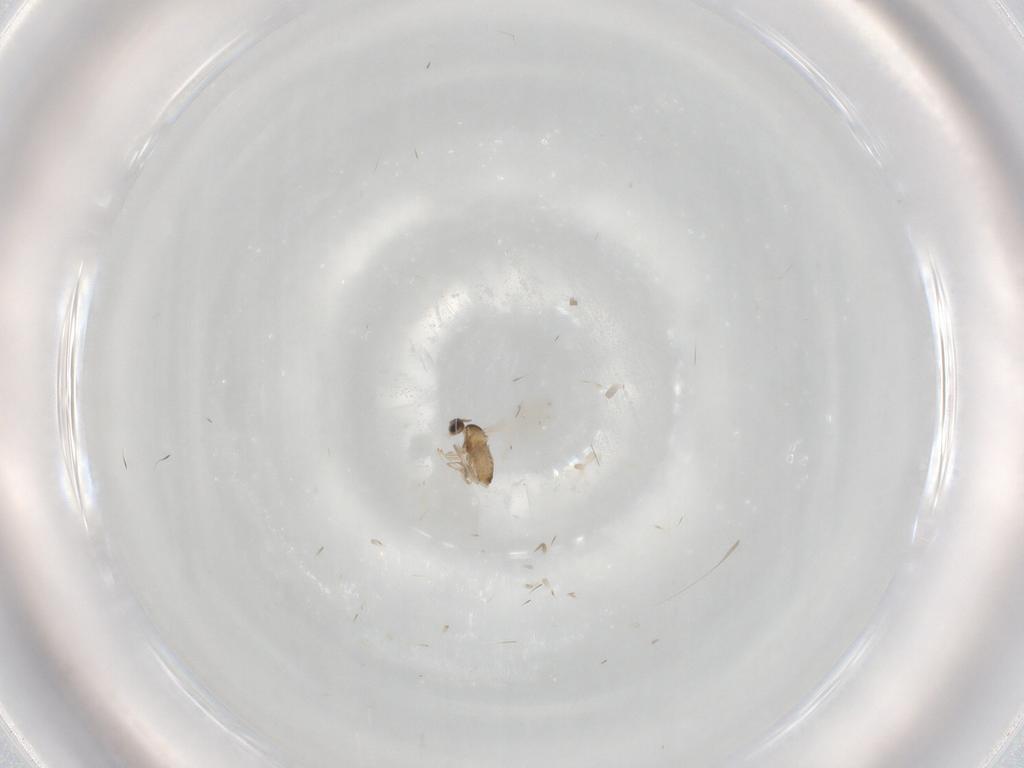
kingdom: Animalia
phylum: Arthropoda
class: Insecta
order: Diptera
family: Cecidomyiidae
